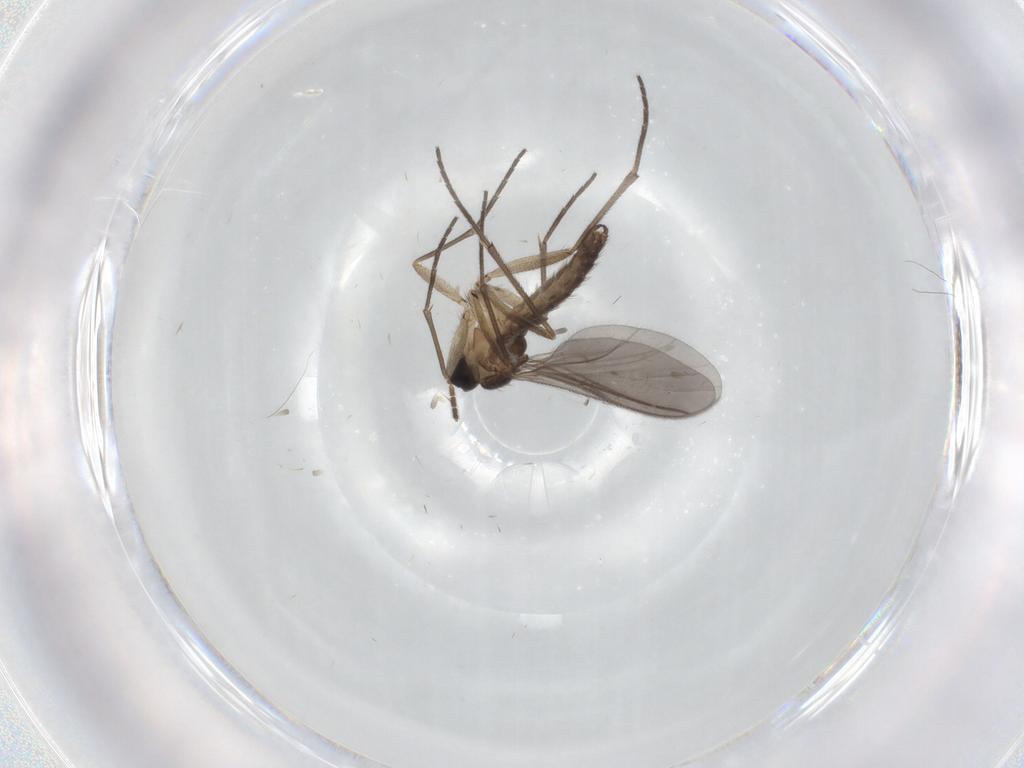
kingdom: Animalia
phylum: Arthropoda
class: Insecta
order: Diptera
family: Sciaridae
